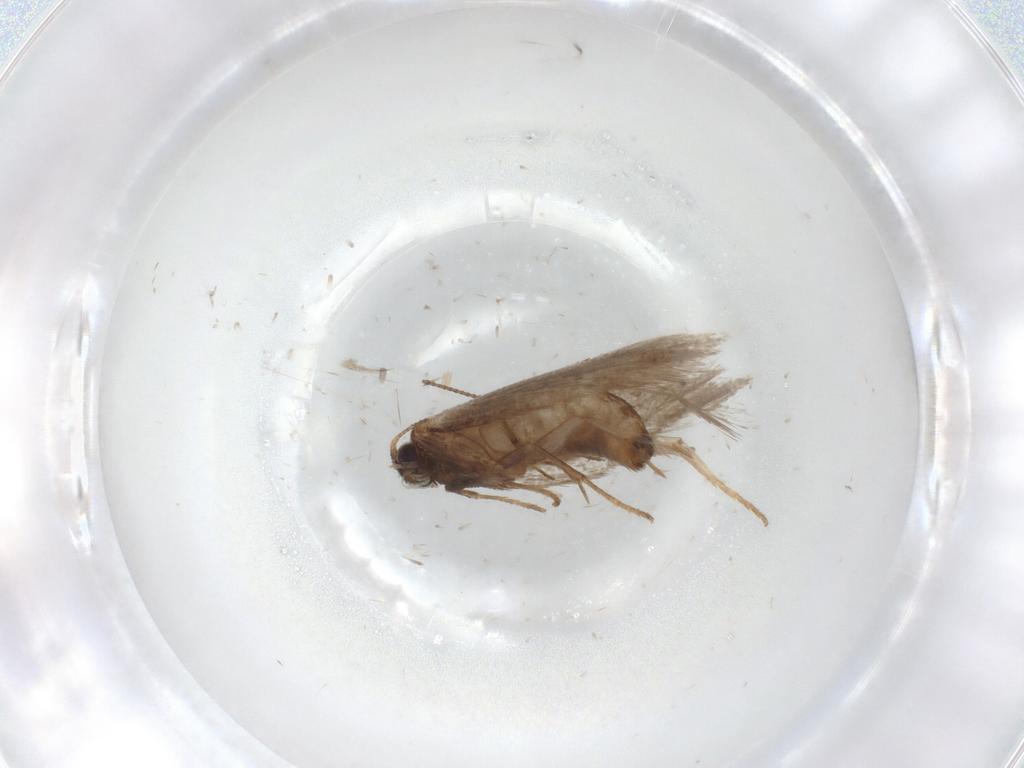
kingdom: Animalia
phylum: Arthropoda
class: Insecta
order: Lepidoptera
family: Nepticulidae
